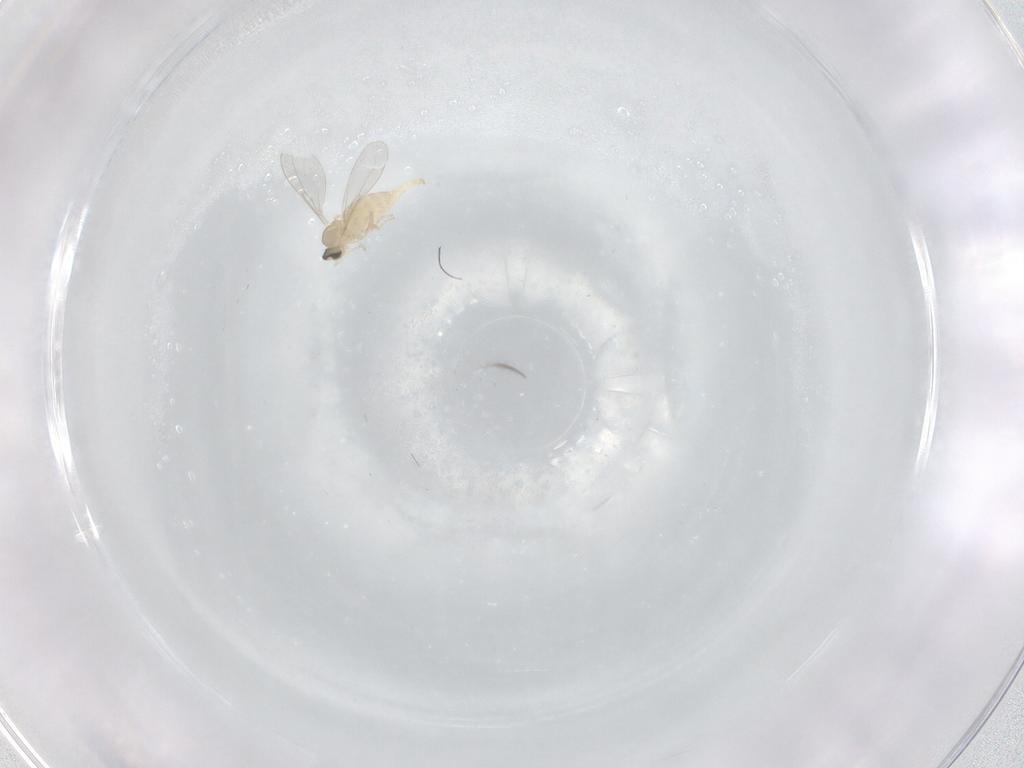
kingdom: Animalia
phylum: Arthropoda
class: Insecta
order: Diptera
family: Cecidomyiidae
